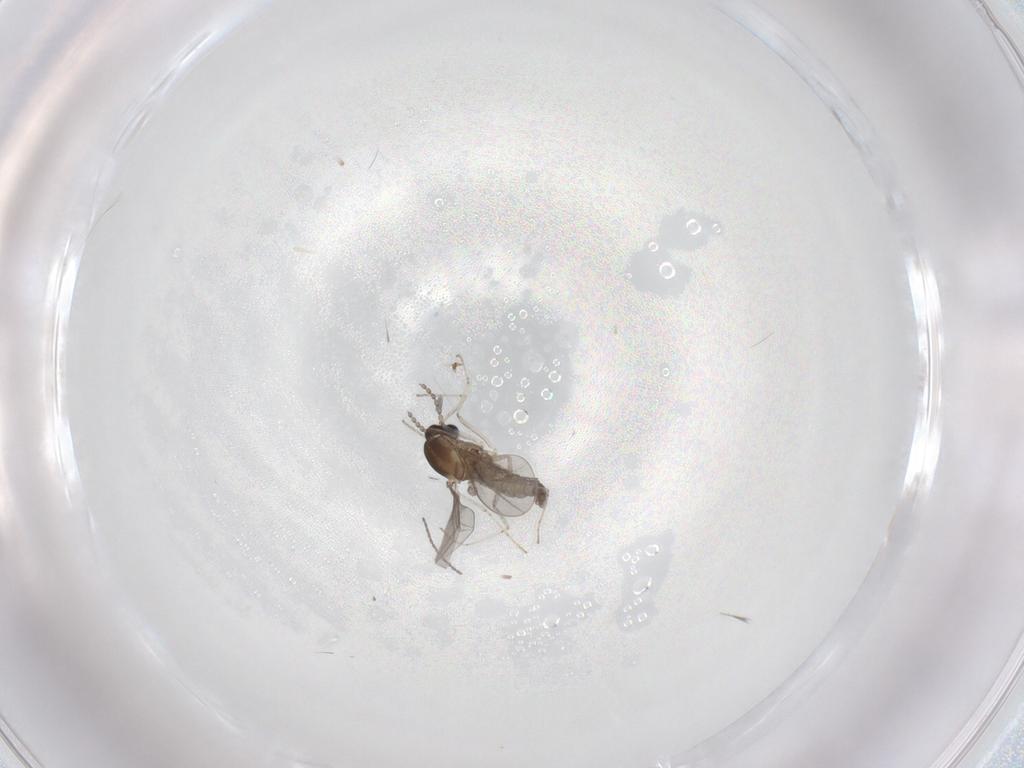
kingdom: Animalia
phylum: Arthropoda
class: Insecta
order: Diptera
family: Cecidomyiidae
